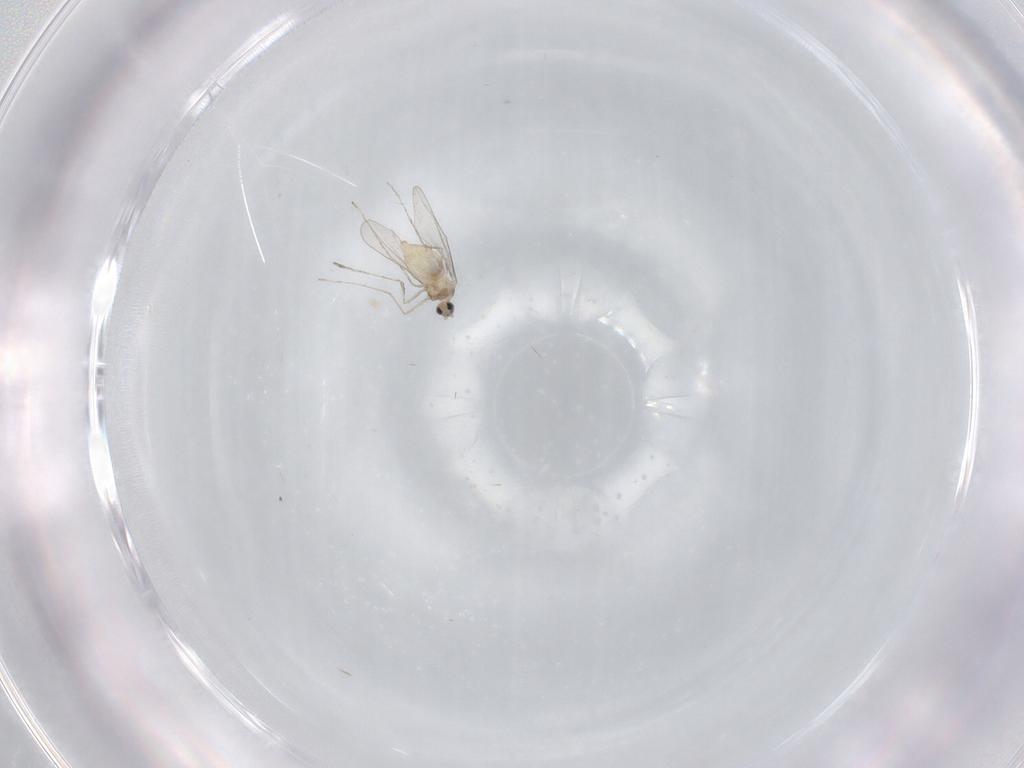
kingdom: Animalia
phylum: Arthropoda
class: Insecta
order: Diptera
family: Cecidomyiidae
